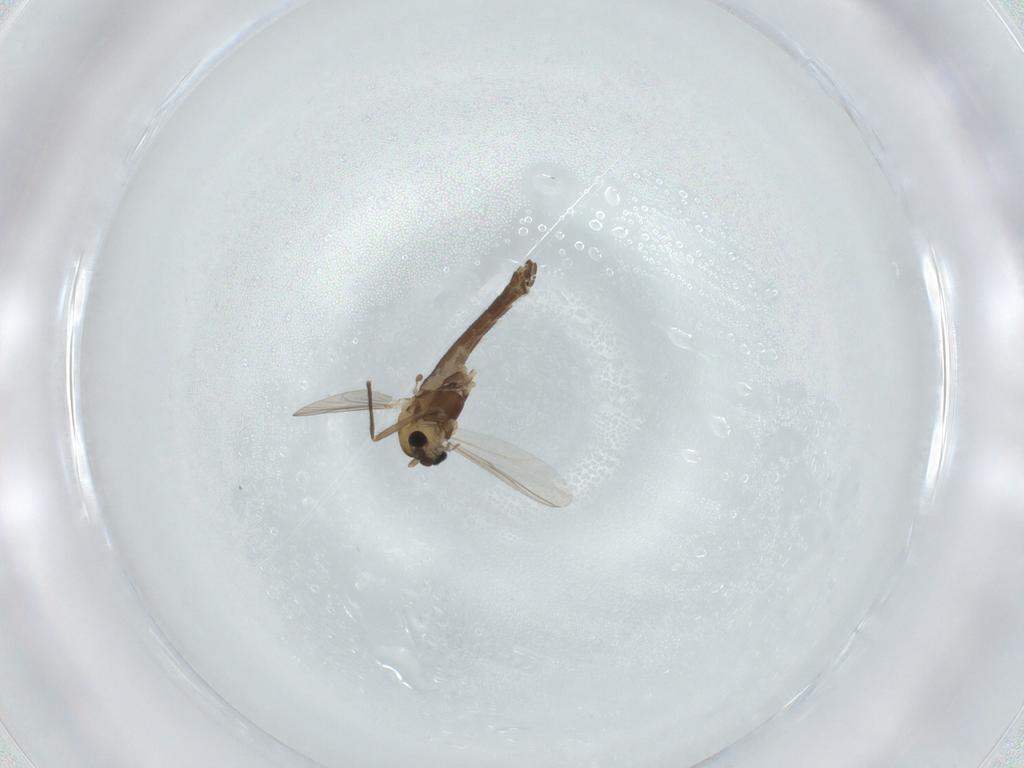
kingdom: Animalia
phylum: Arthropoda
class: Insecta
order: Diptera
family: Chironomidae
